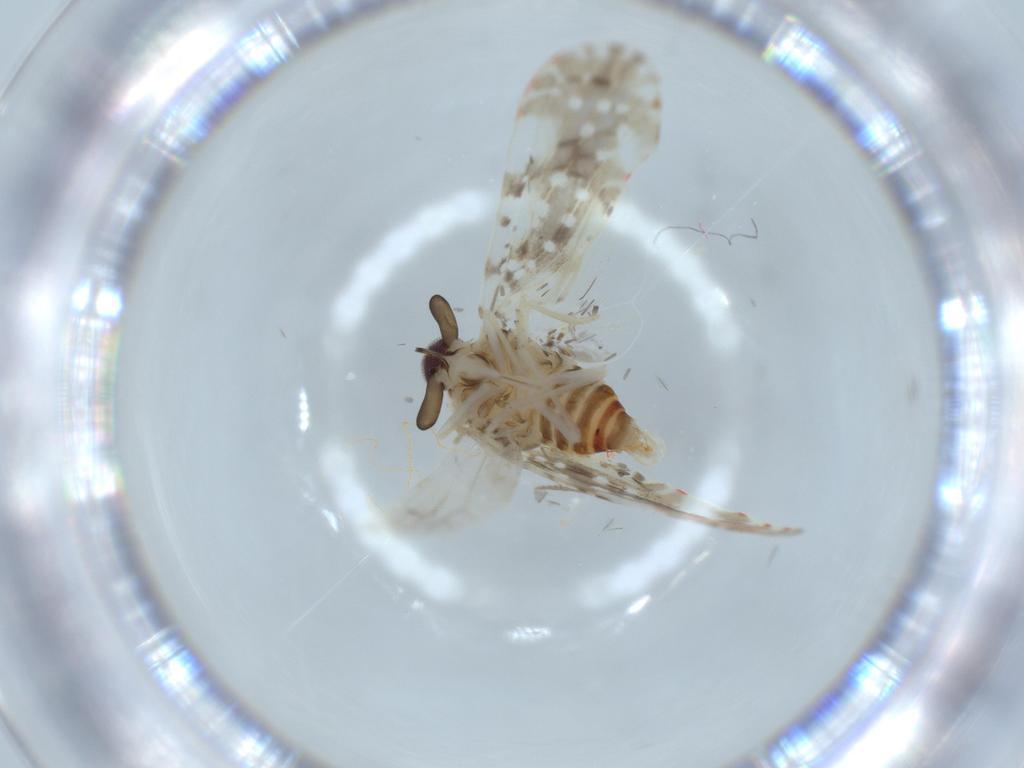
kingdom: Animalia
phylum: Arthropoda
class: Insecta
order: Hemiptera
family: Derbidae
